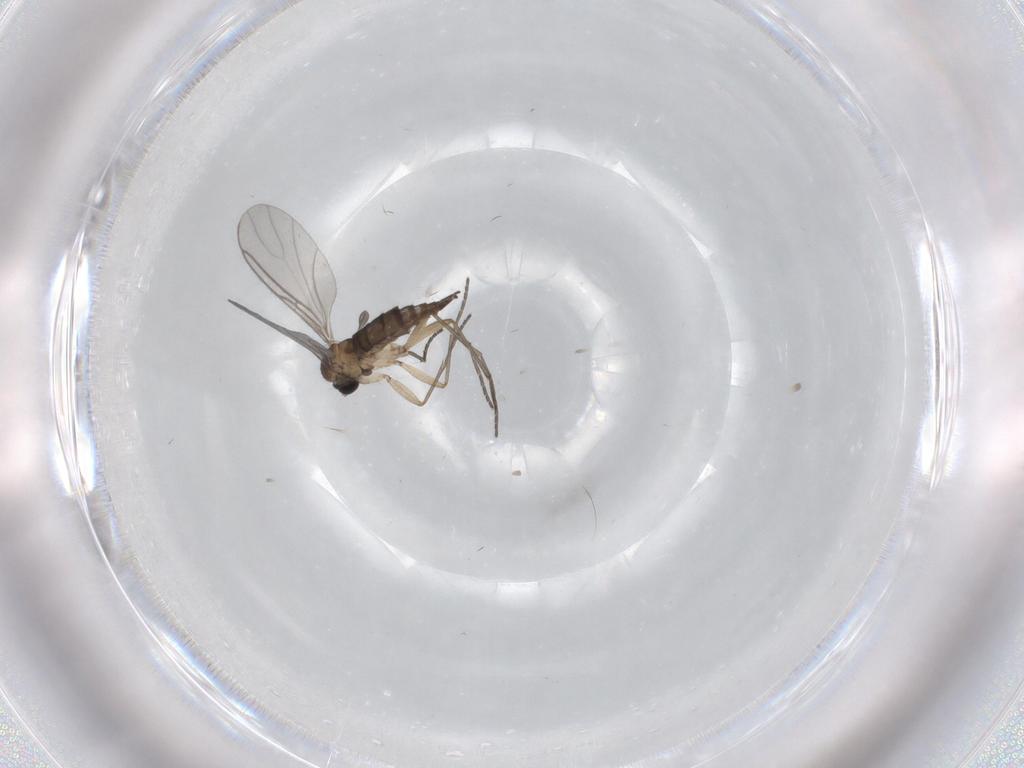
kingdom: Animalia
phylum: Arthropoda
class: Insecta
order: Diptera
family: Sciaridae
